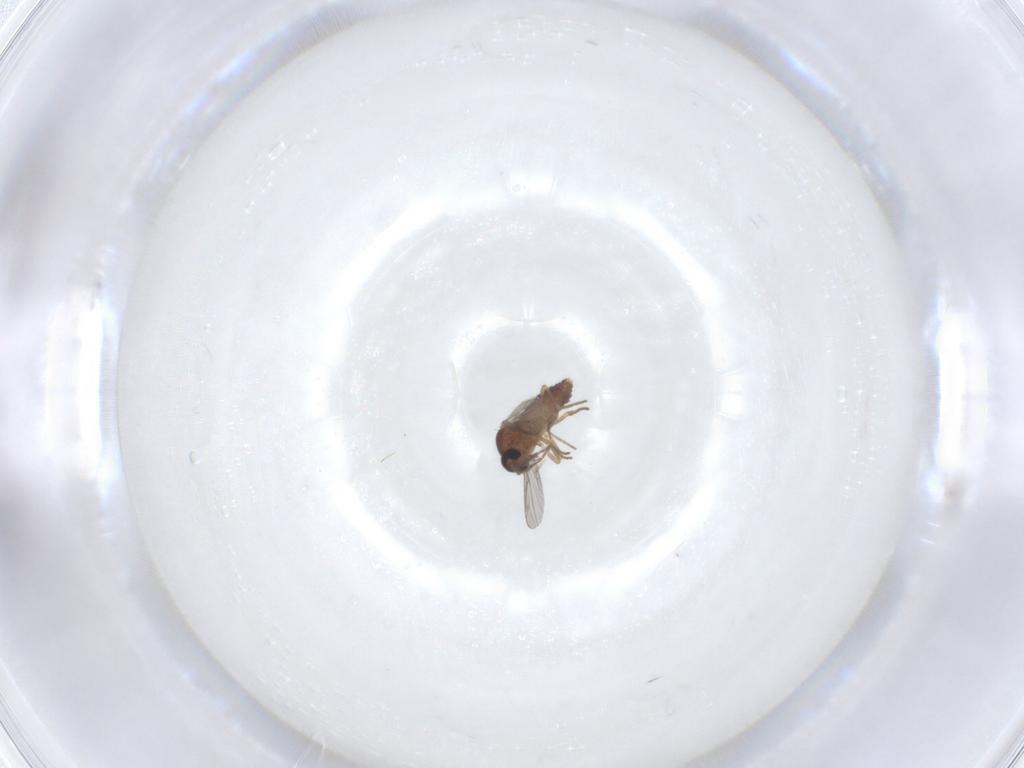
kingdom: Animalia
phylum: Arthropoda
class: Insecta
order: Diptera
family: Ceratopogonidae
